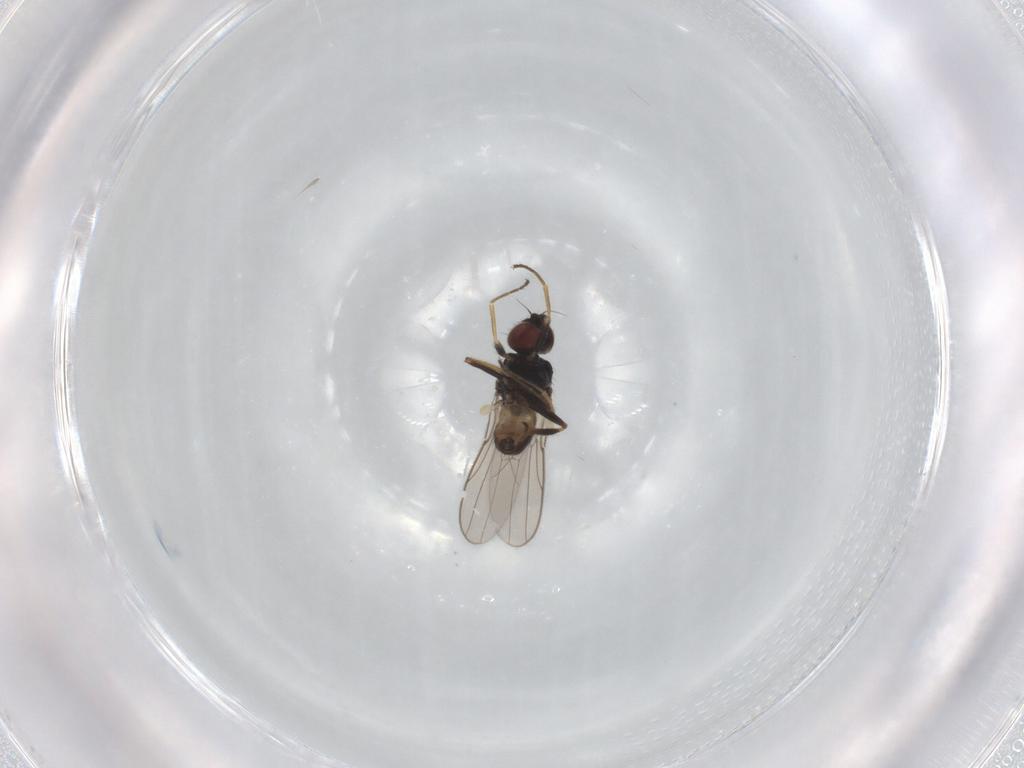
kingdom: Animalia
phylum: Arthropoda
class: Insecta
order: Diptera
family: Chloropidae
